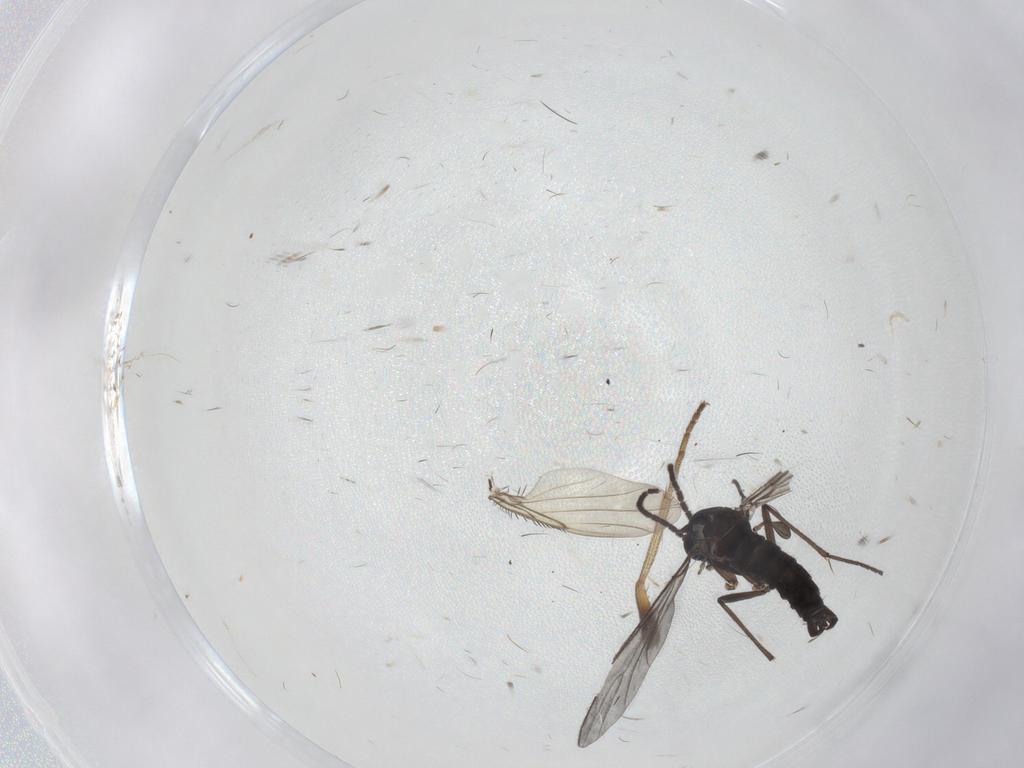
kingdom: Animalia
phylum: Arthropoda
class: Insecta
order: Diptera
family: Sciaridae
